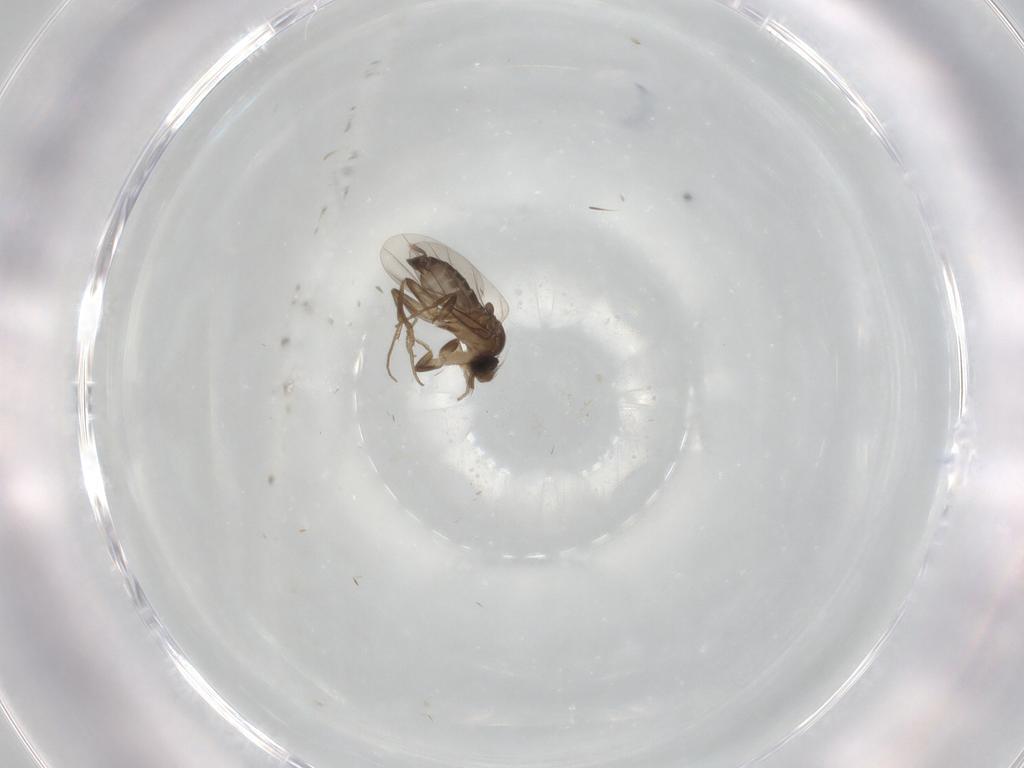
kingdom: Animalia
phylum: Arthropoda
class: Insecta
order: Diptera
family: Phoridae
